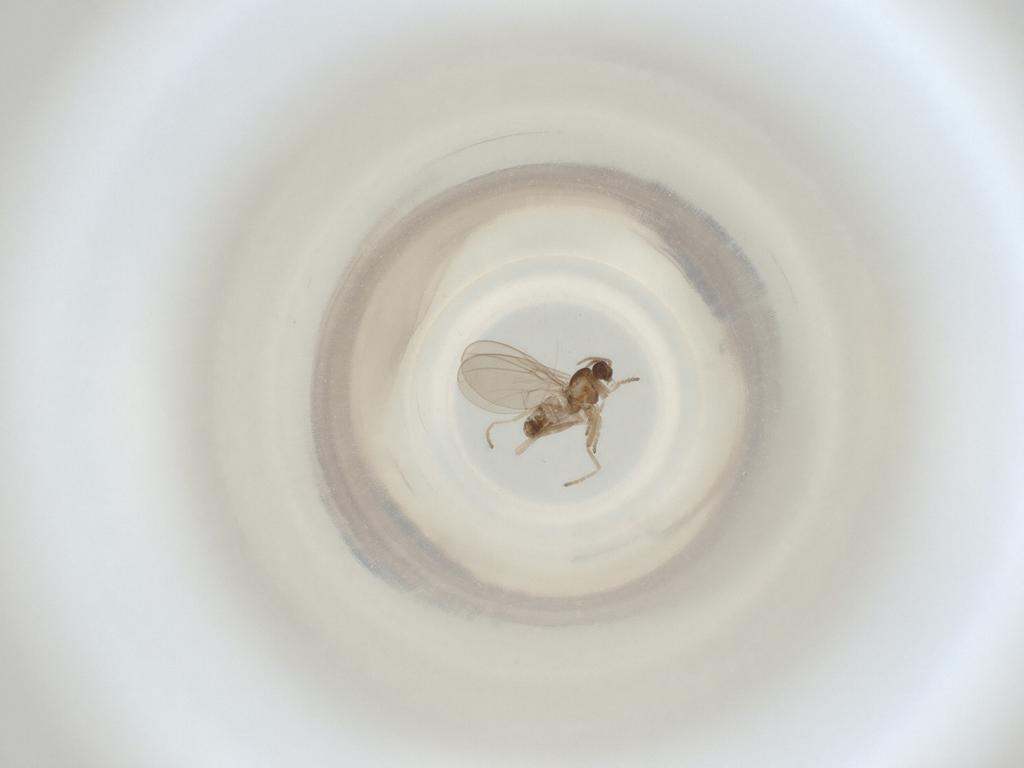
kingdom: Animalia
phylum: Arthropoda
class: Insecta
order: Diptera
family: Cecidomyiidae
